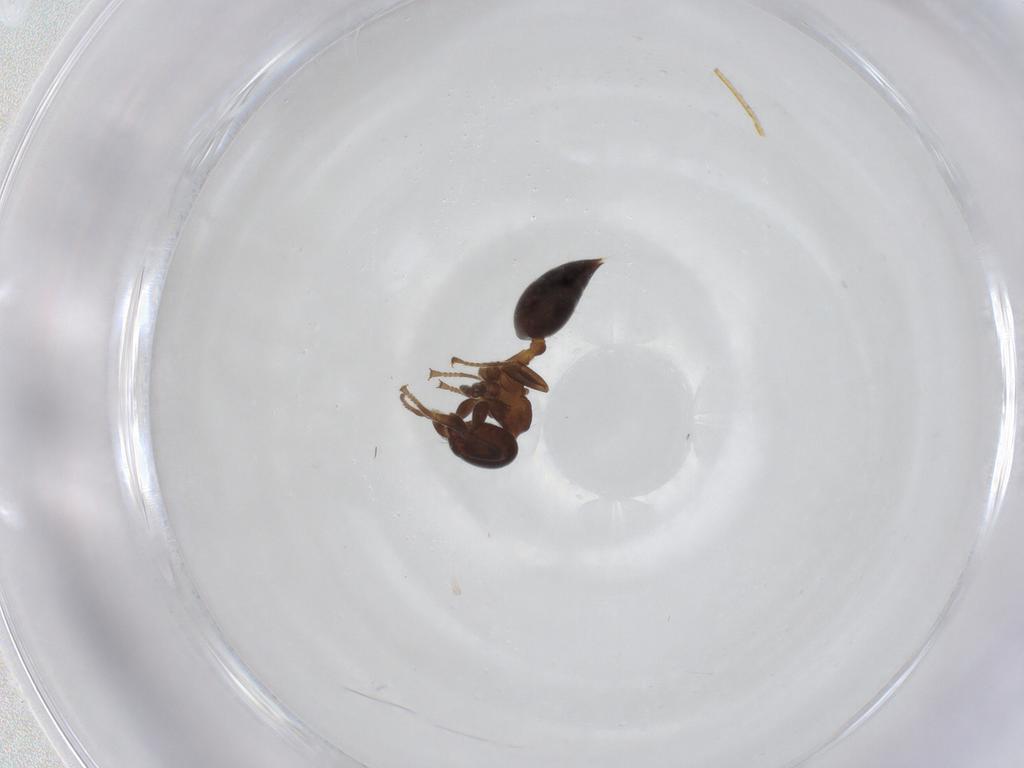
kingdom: Animalia
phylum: Arthropoda
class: Insecta
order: Hymenoptera
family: Formicidae
